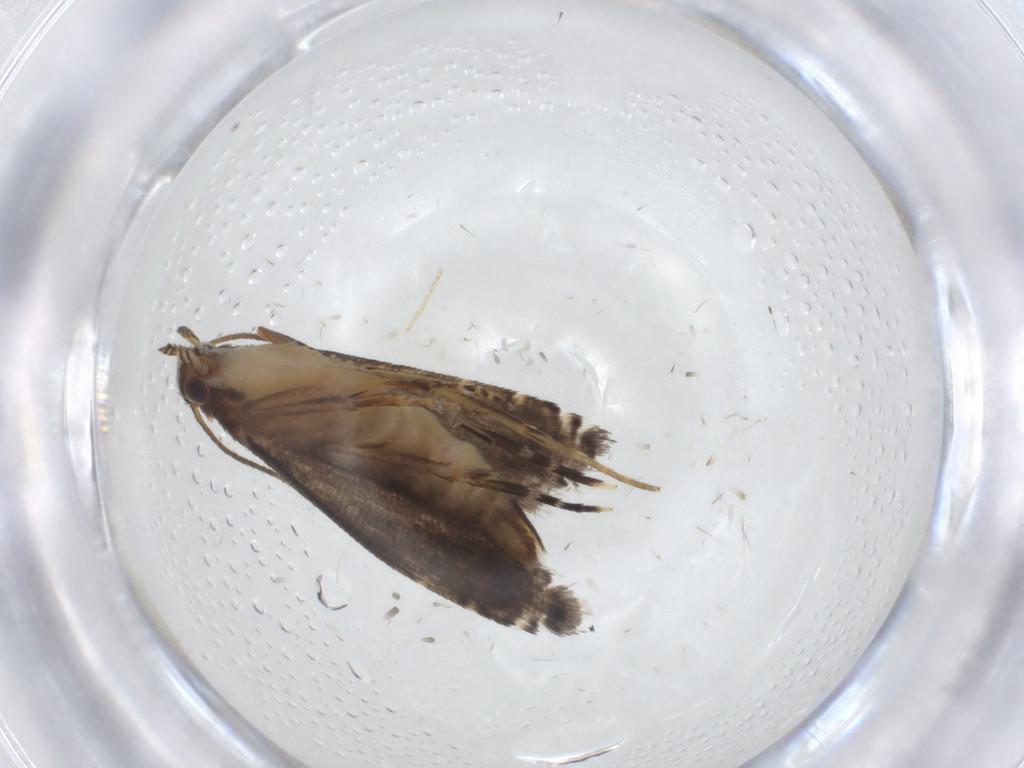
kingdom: Animalia
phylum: Arthropoda
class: Insecta
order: Lepidoptera
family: Glyphipterigidae
